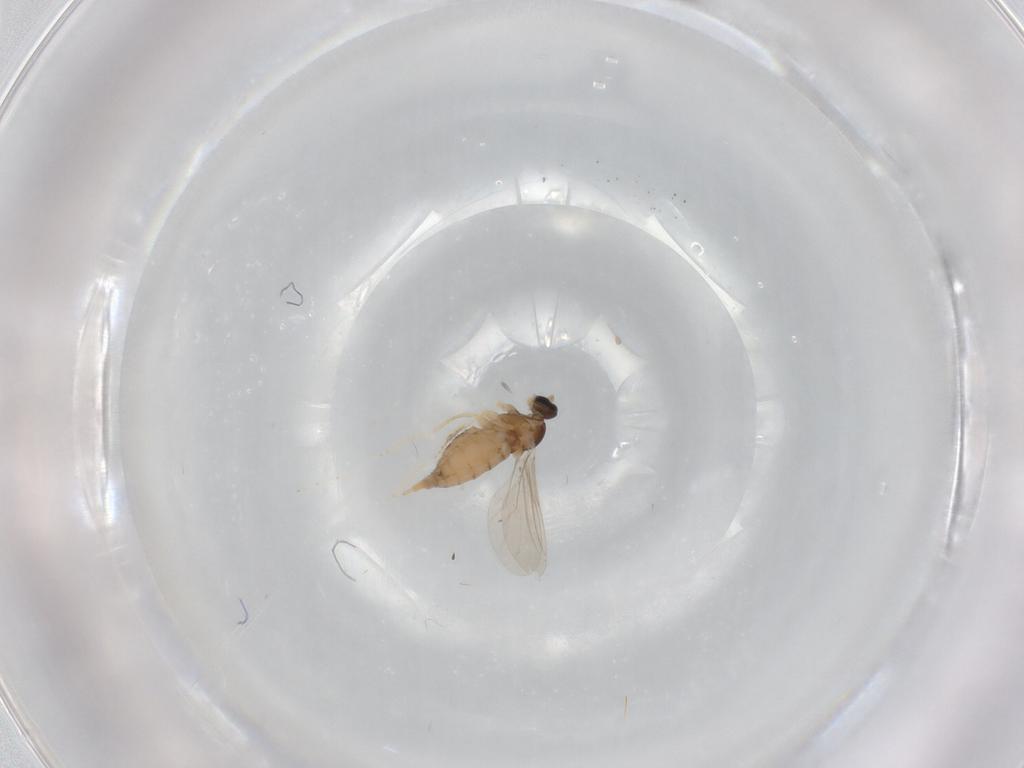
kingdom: Animalia
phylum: Arthropoda
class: Insecta
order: Diptera
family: Cecidomyiidae
